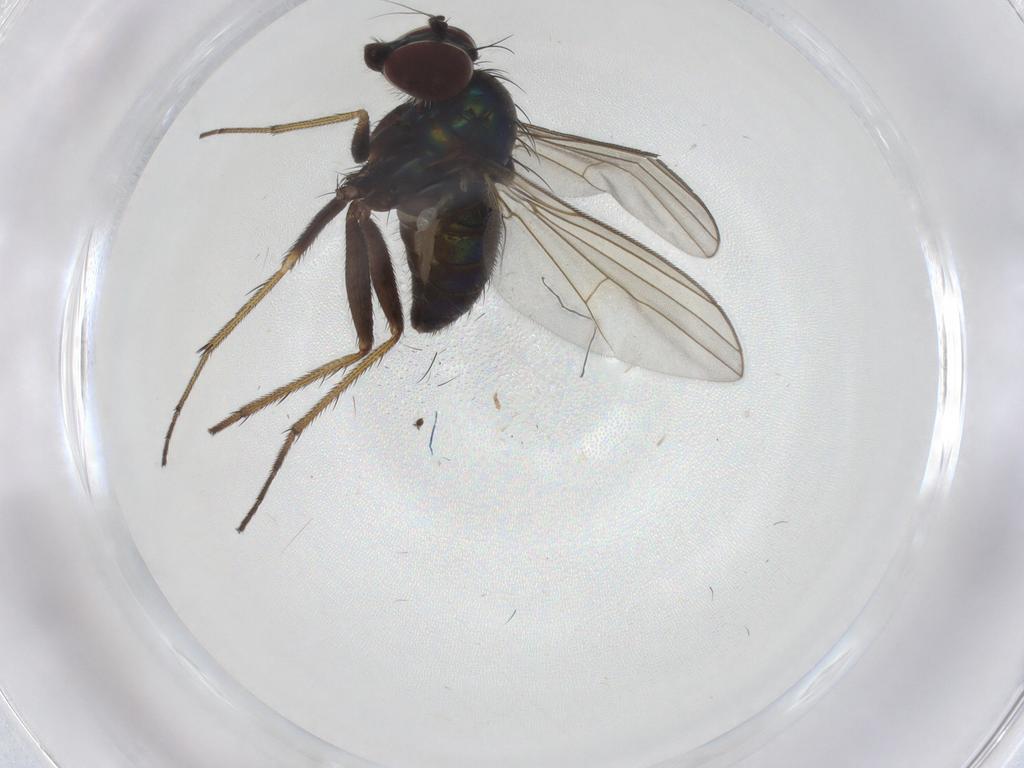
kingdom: Animalia
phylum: Arthropoda
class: Insecta
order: Diptera
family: Dolichopodidae
